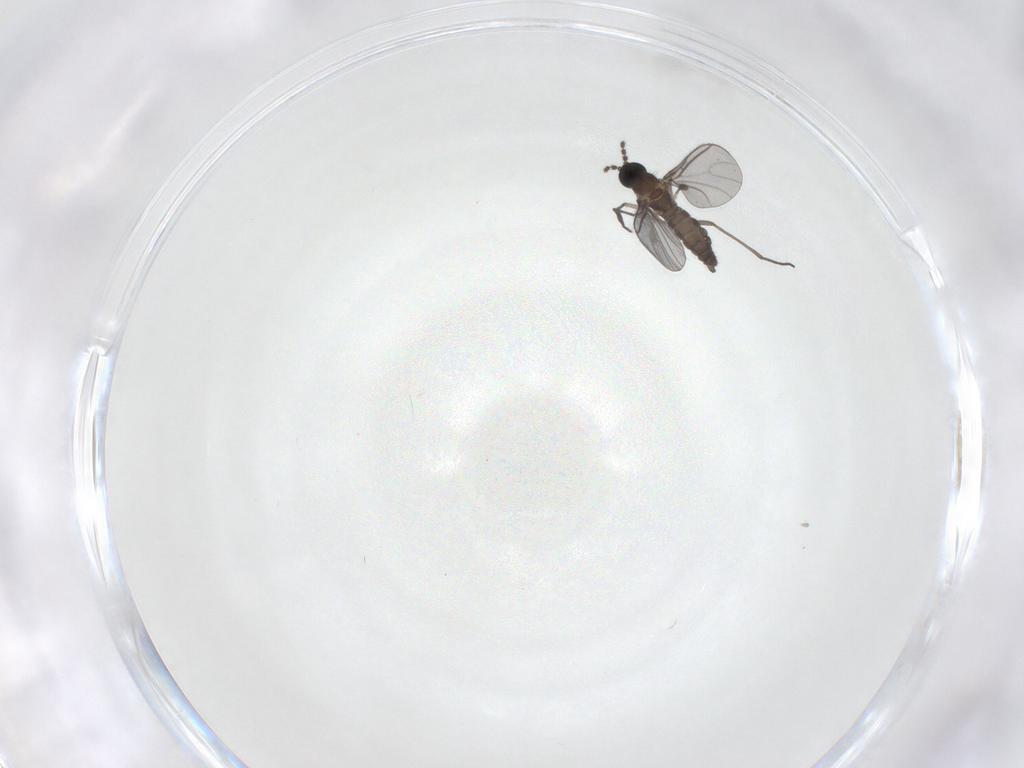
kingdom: Animalia
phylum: Arthropoda
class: Insecta
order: Diptera
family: Sciaridae
